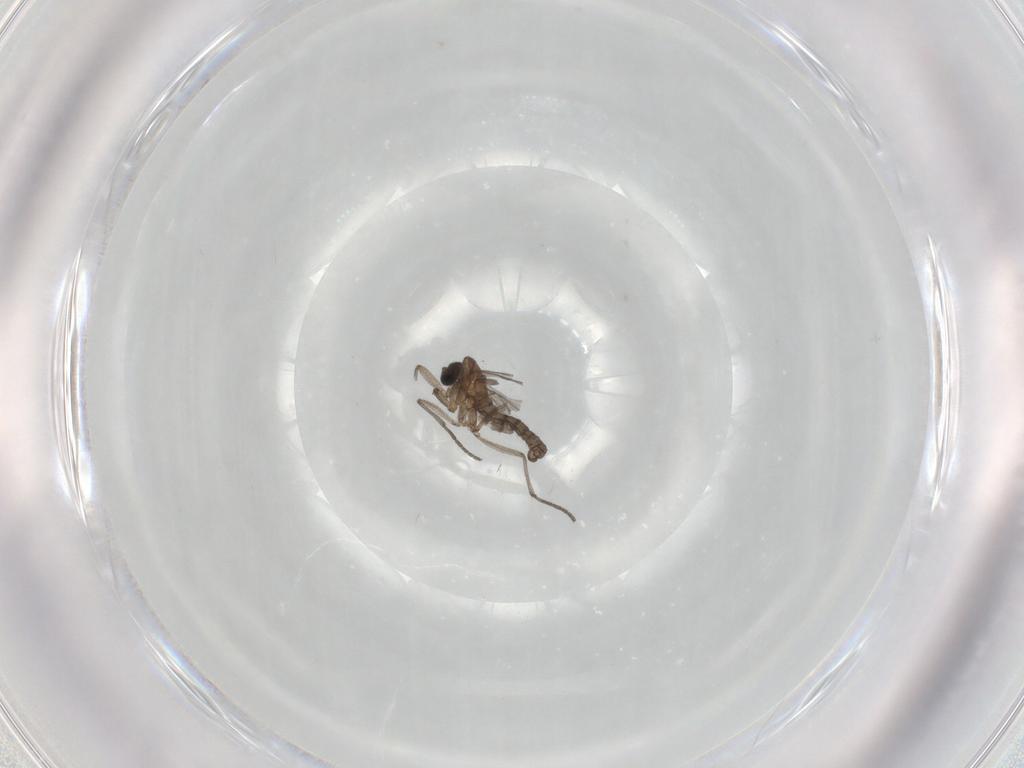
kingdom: Animalia
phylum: Arthropoda
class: Insecta
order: Diptera
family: Sciaridae
